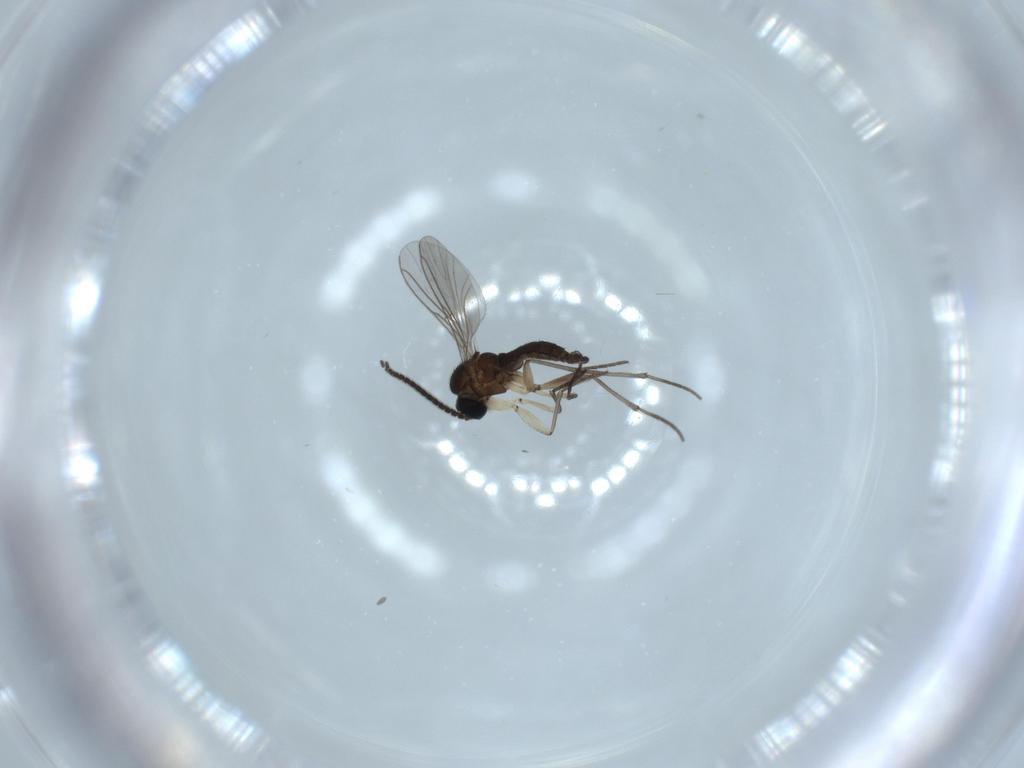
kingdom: Animalia
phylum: Arthropoda
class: Insecta
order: Diptera
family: Sciaridae
